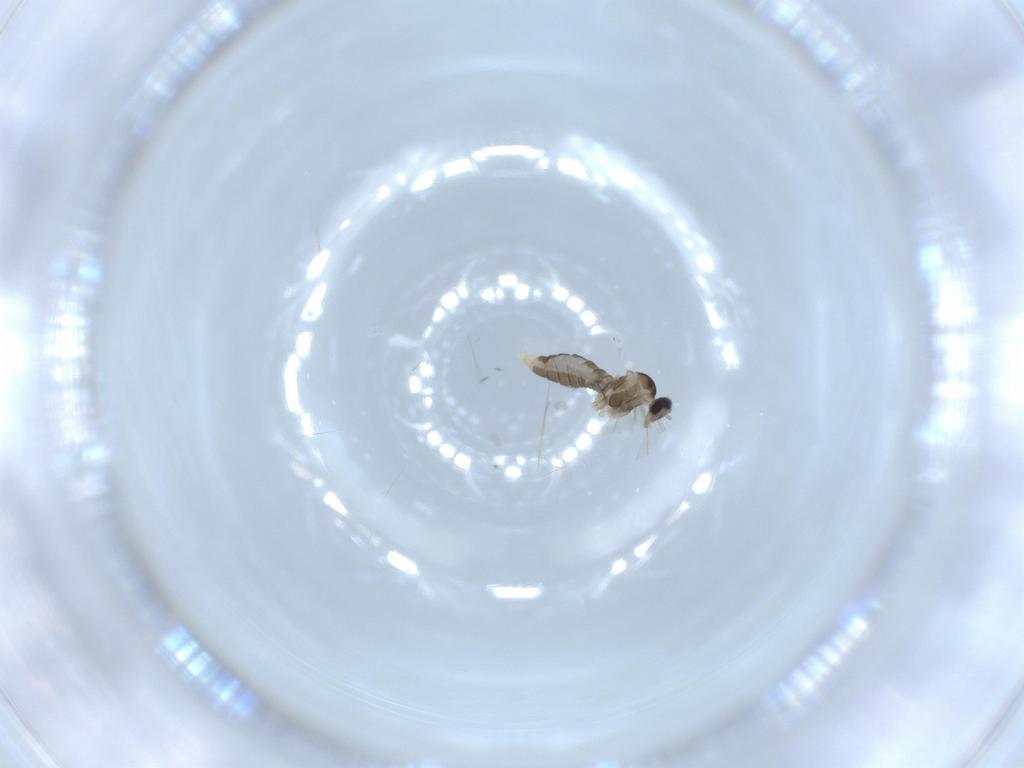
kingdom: Animalia
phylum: Arthropoda
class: Insecta
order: Diptera
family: Cecidomyiidae
